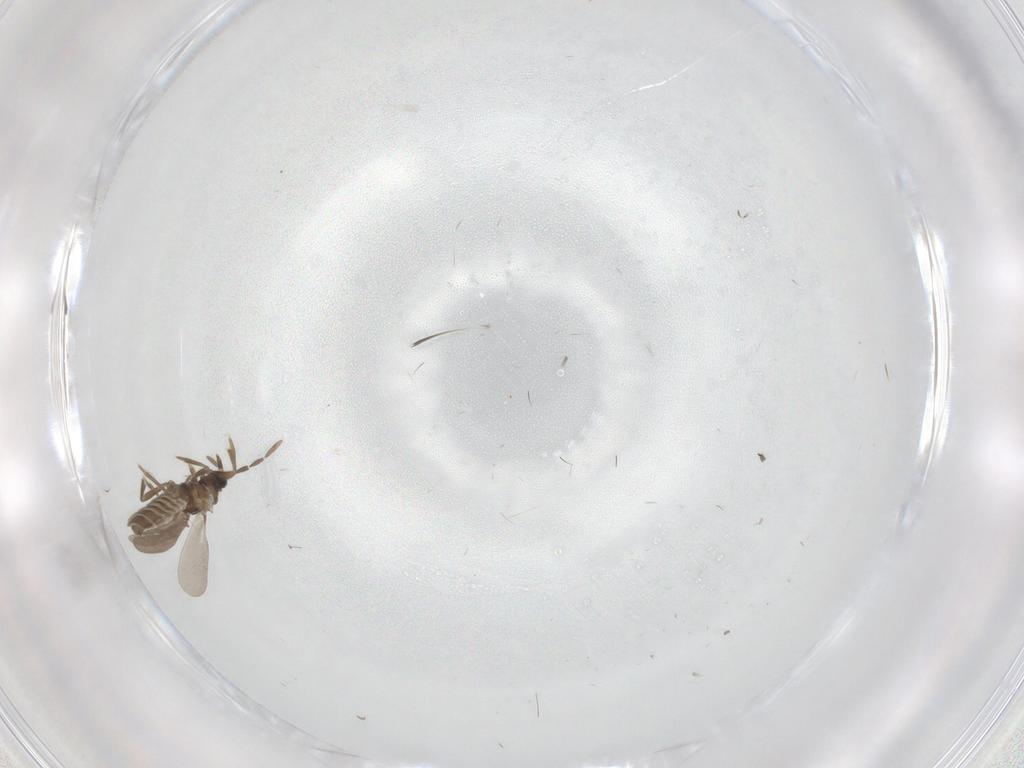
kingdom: Animalia
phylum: Arthropoda
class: Insecta
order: Hemiptera
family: Enicocephalidae
